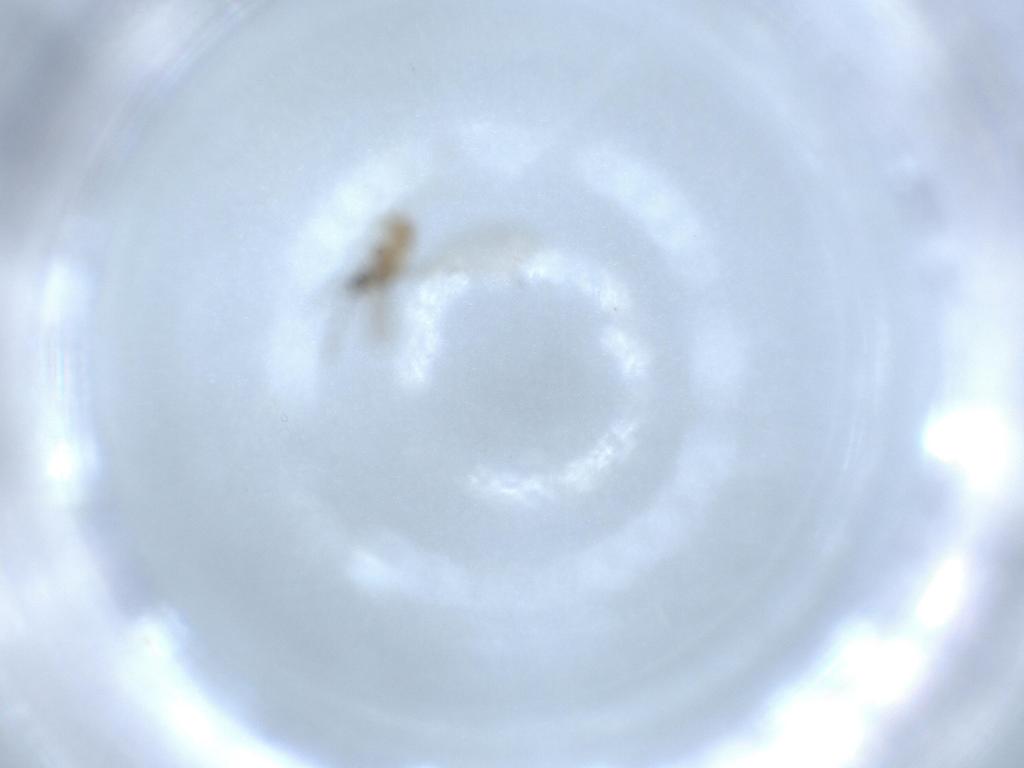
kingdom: Animalia
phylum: Arthropoda
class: Insecta
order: Diptera
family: Cecidomyiidae
